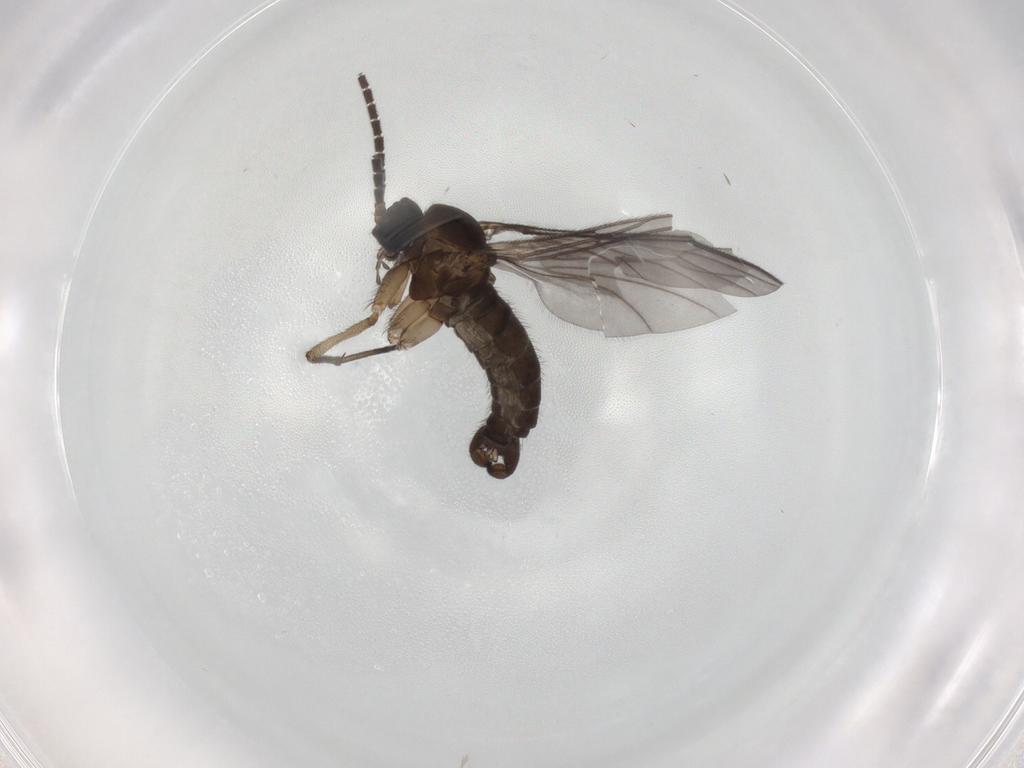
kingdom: Animalia
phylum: Arthropoda
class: Insecta
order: Diptera
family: Sciaridae
